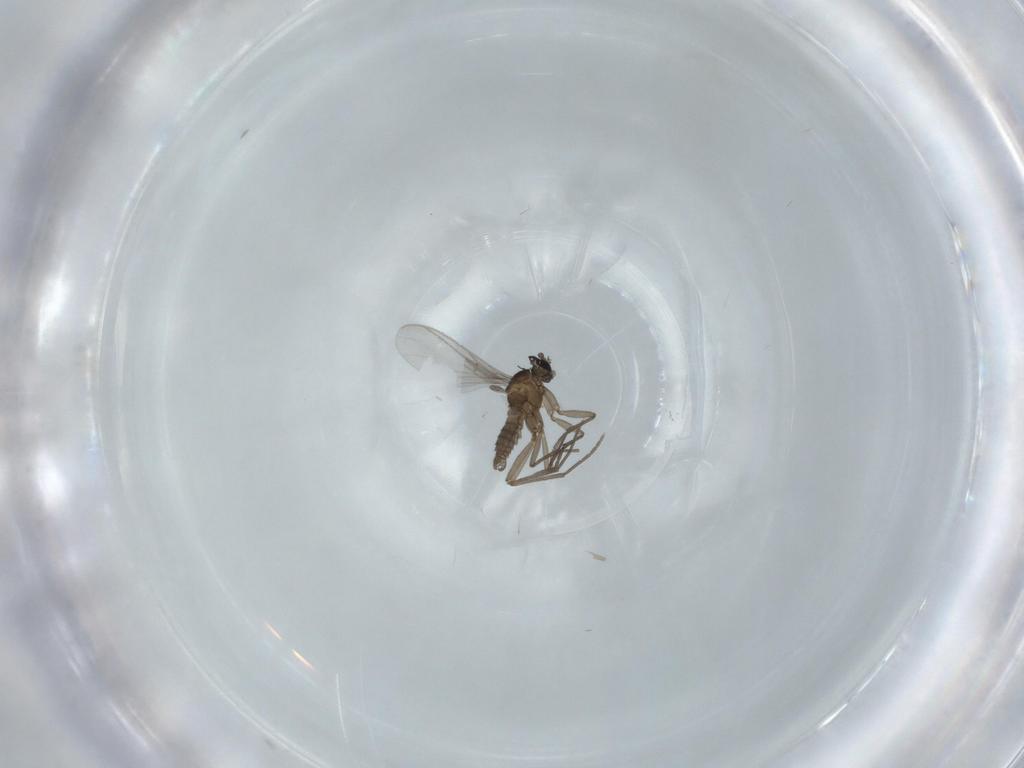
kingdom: Animalia
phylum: Arthropoda
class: Insecta
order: Diptera
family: Sciaridae
